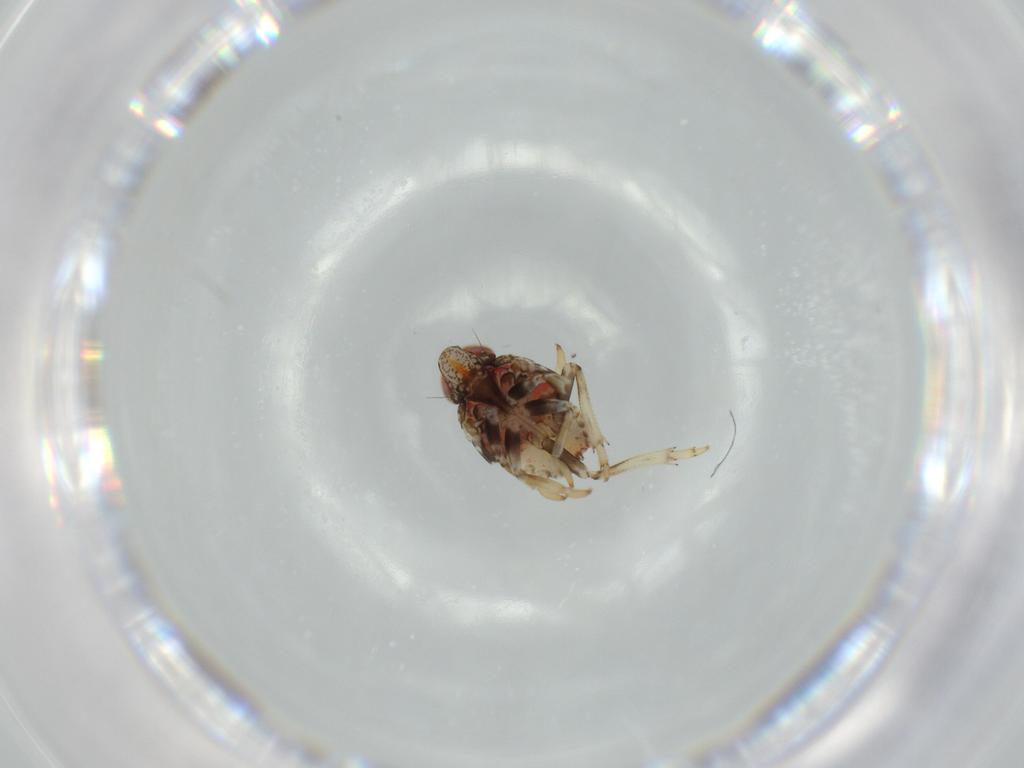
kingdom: Animalia
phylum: Arthropoda
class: Insecta
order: Hemiptera
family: Issidae
